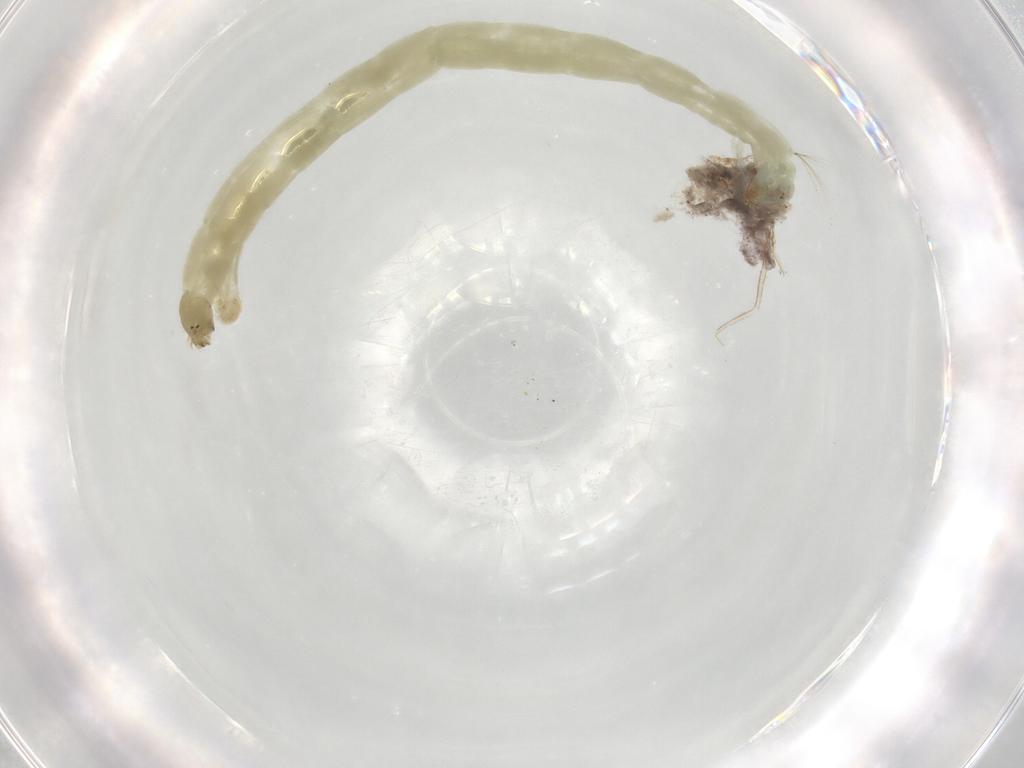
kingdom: Animalia
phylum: Arthropoda
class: Insecta
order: Diptera
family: Chironomidae
